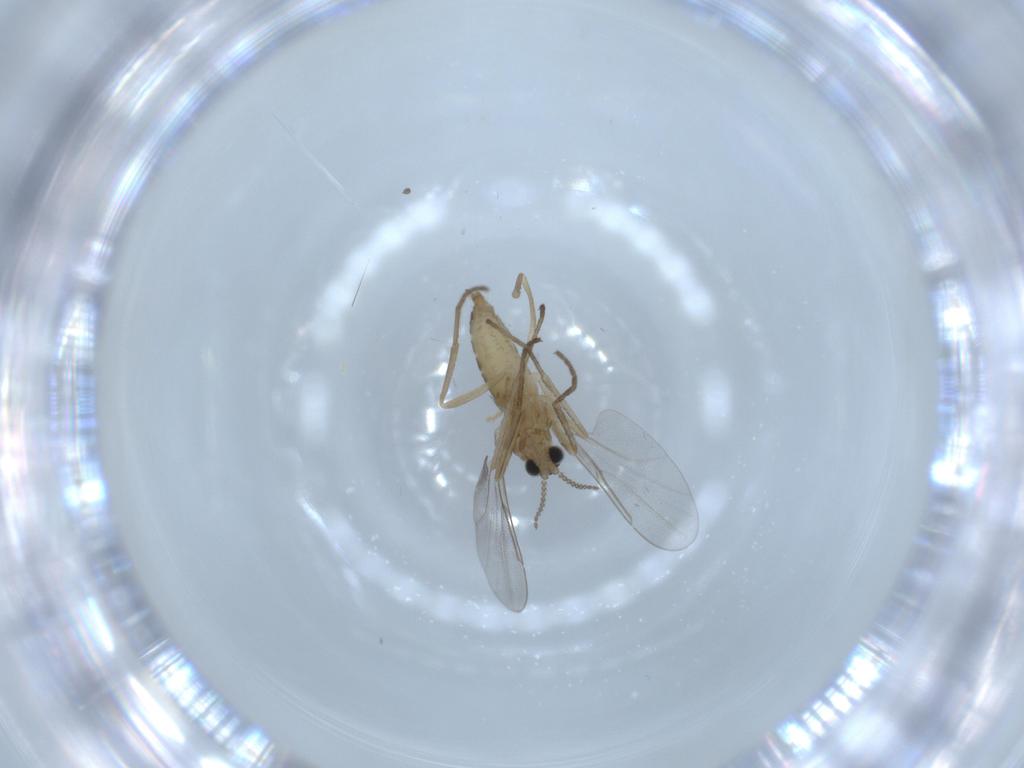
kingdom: Animalia
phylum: Arthropoda
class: Insecta
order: Diptera
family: Cecidomyiidae
